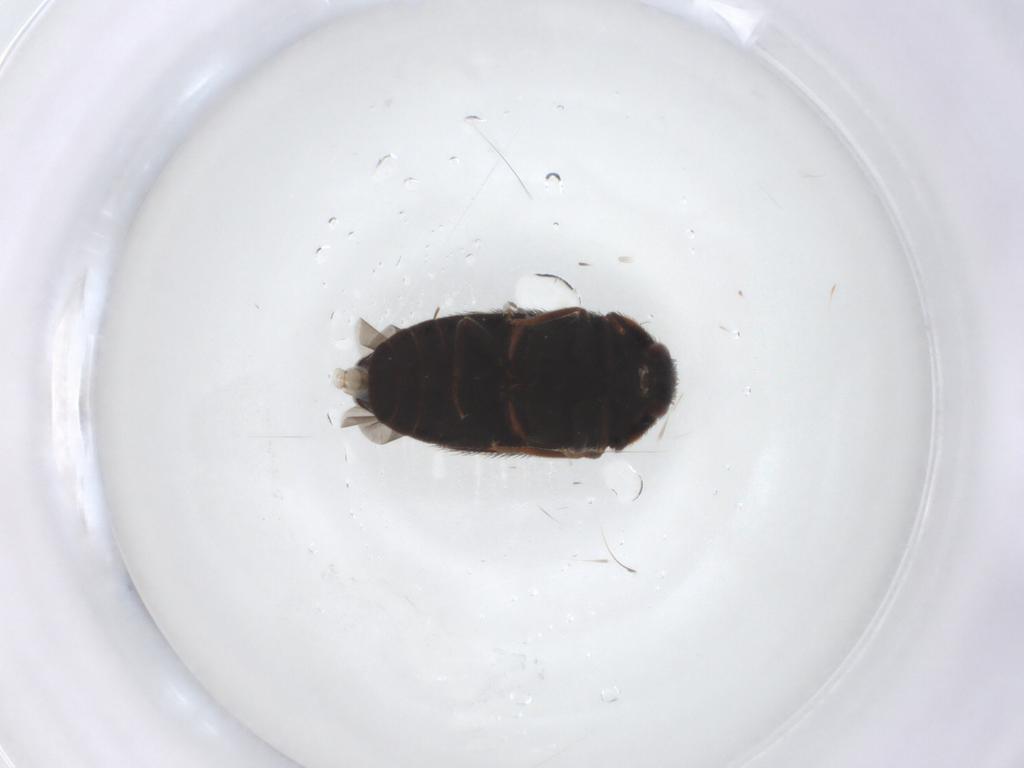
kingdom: Animalia
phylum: Arthropoda
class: Insecta
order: Coleoptera
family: Dermestidae
